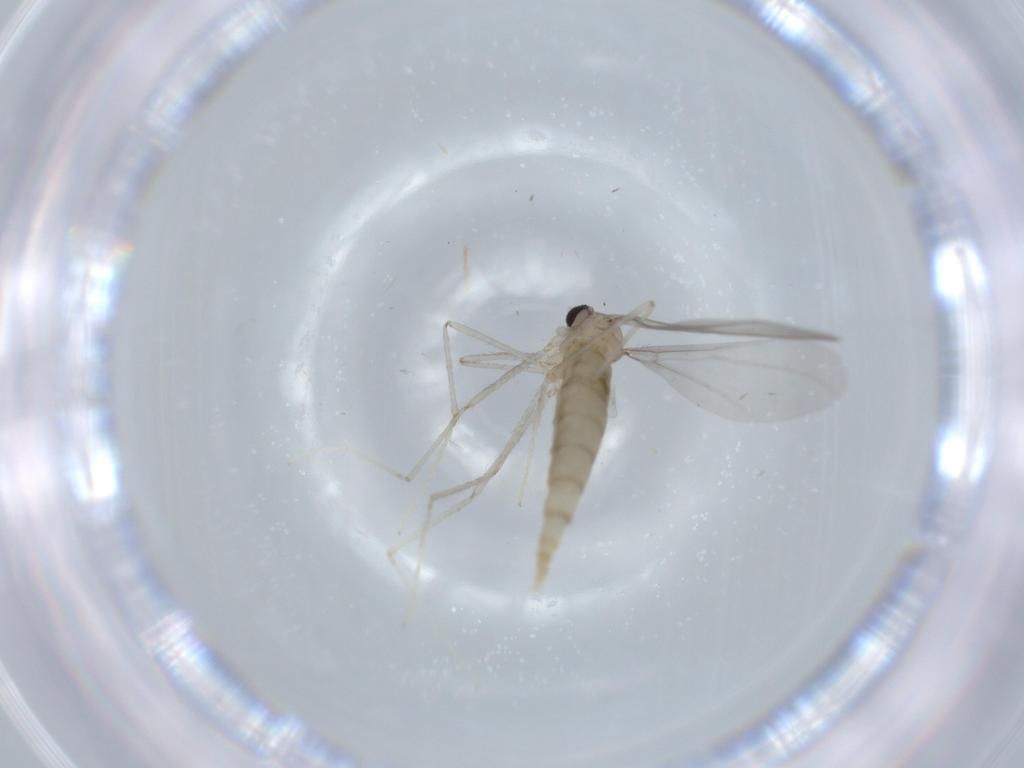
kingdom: Animalia
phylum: Arthropoda
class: Insecta
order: Diptera
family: Cecidomyiidae
